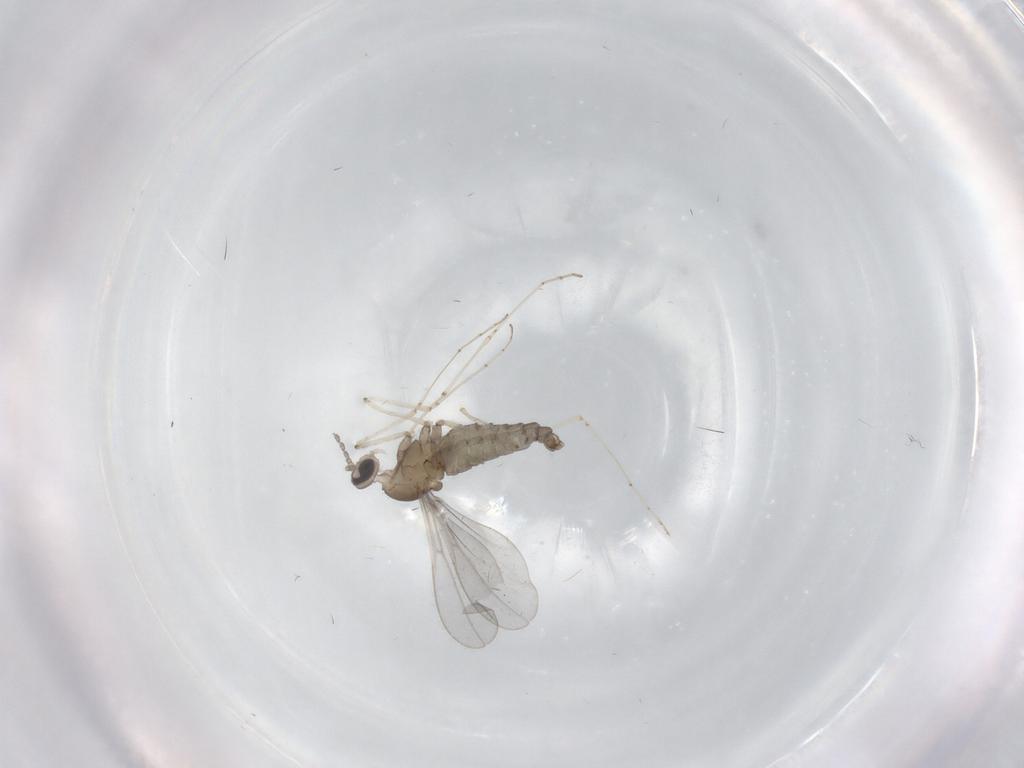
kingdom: Animalia
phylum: Arthropoda
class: Insecta
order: Diptera
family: Cecidomyiidae
